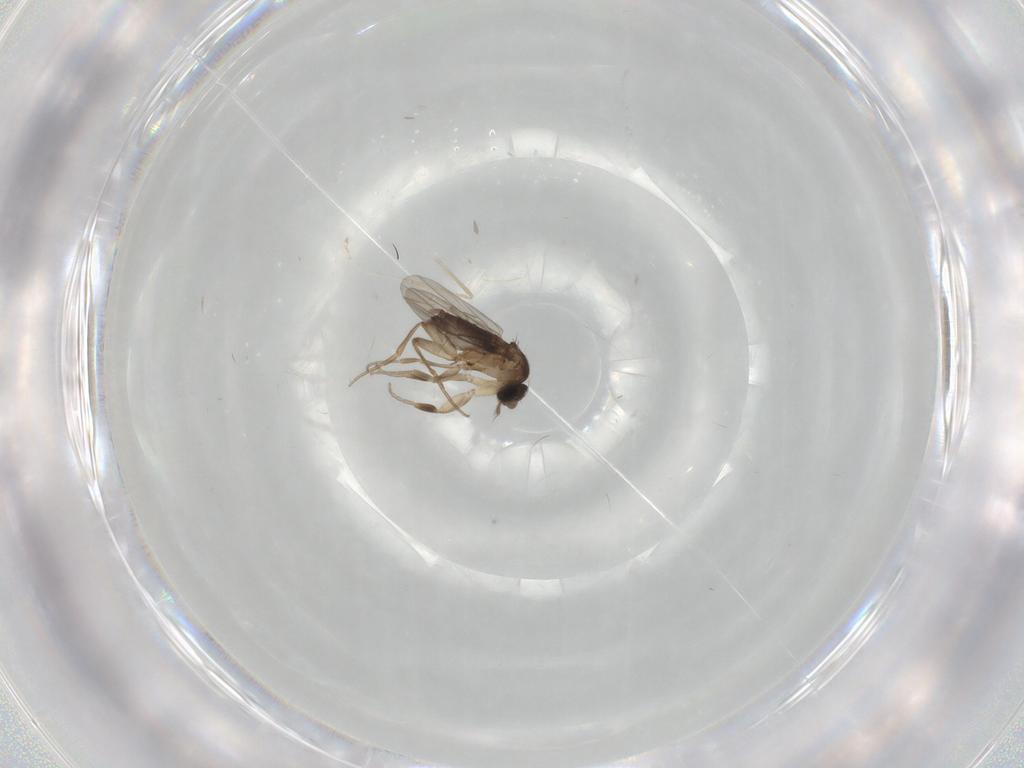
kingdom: Animalia
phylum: Arthropoda
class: Insecta
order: Diptera
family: Phoridae
